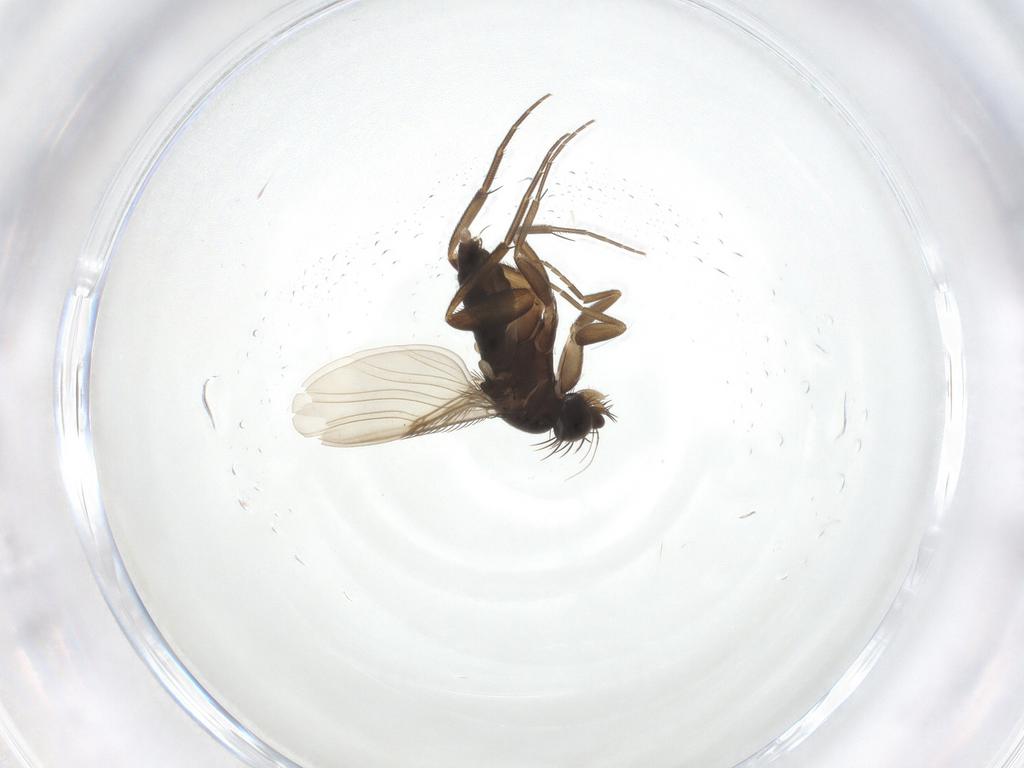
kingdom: Animalia
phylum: Arthropoda
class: Insecta
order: Diptera
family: Phoridae
